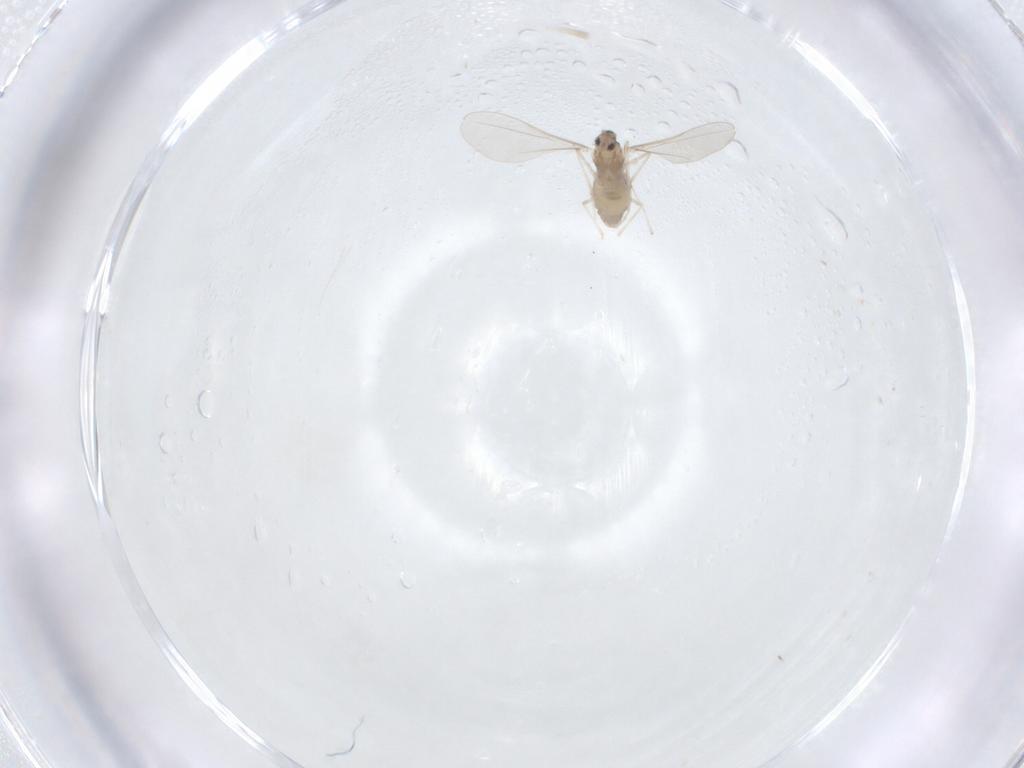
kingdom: Animalia
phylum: Arthropoda
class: Insecta
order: Diptera
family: Cecidomyiidae
